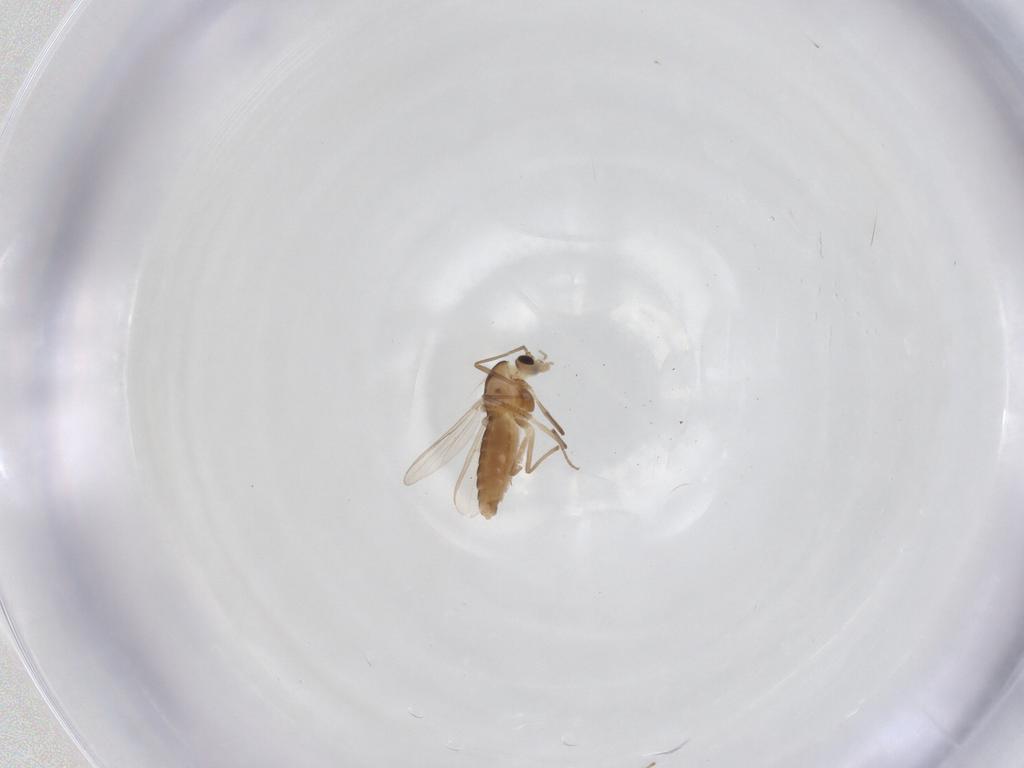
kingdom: Animalia
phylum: Arthropoda
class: Insecta
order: Diptera
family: Chironomidae
